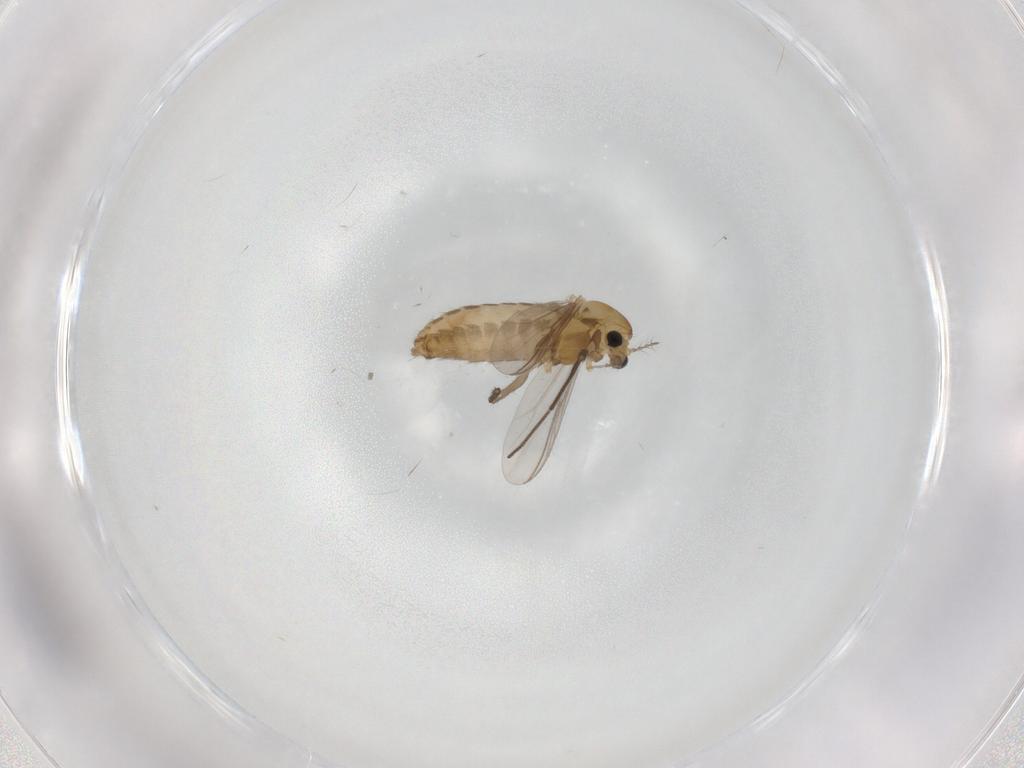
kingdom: Animalia
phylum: Arthropoda
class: Insecta
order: Diptera
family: Chironomidae
